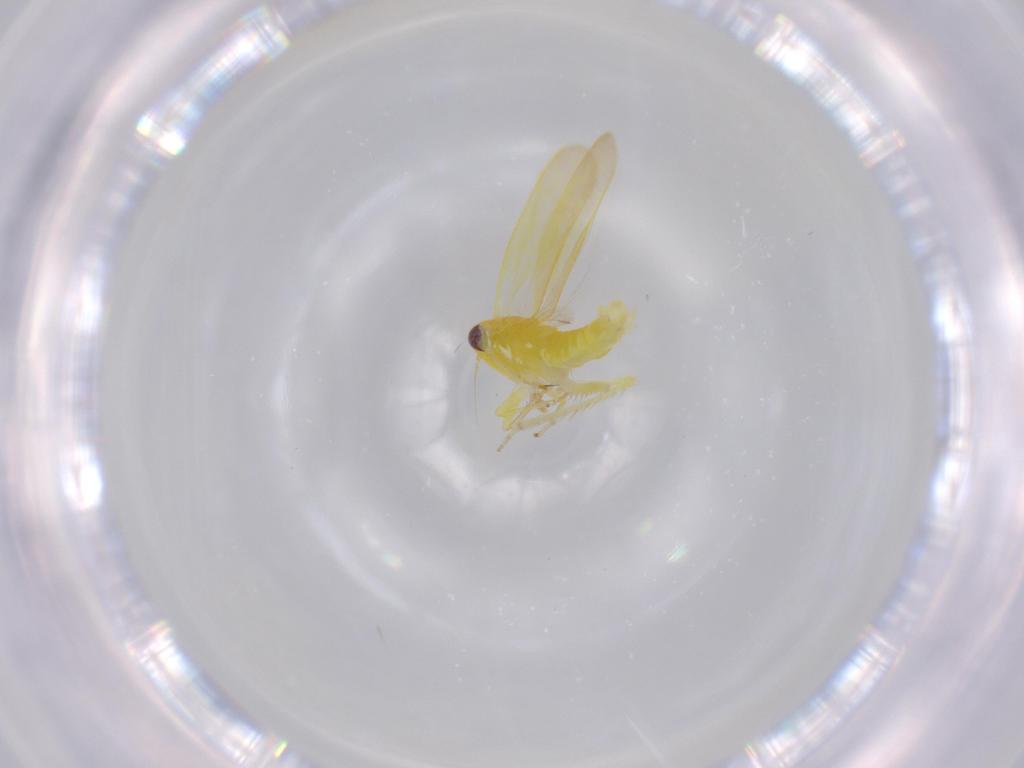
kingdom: Animalia
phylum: Arthropoda
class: Insecta
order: Hemiptera
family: Cicadellidae
